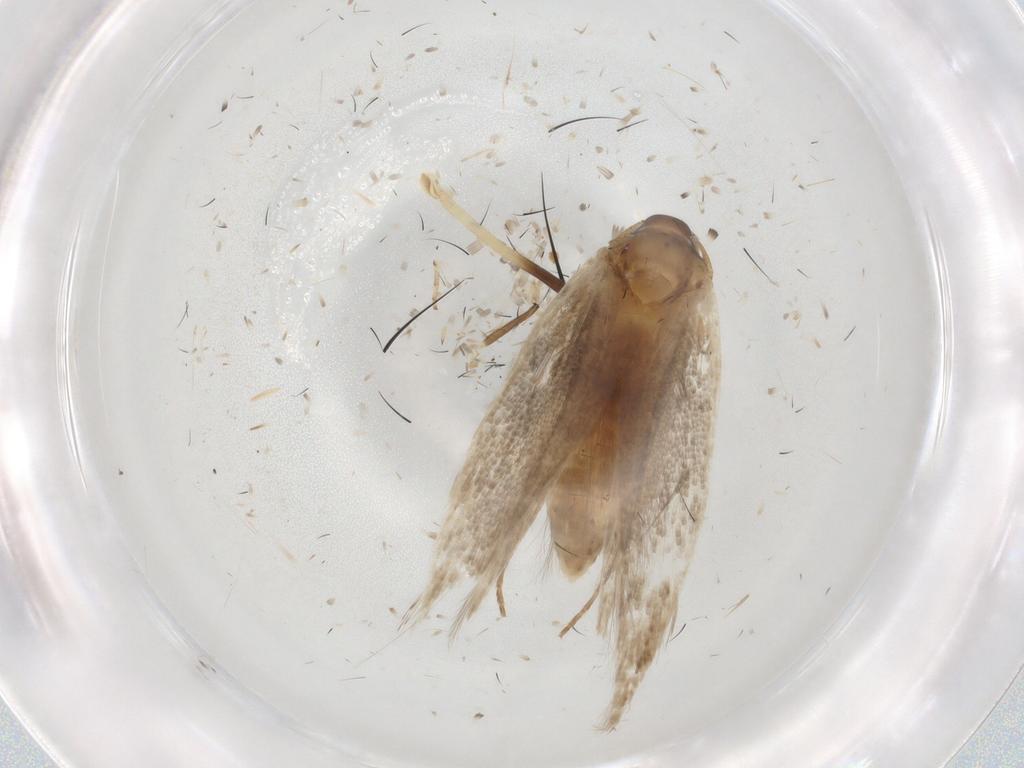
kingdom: Animalia
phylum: Arthropoda
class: Insecta
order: Lepidoptera
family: Cosmopterigidae
